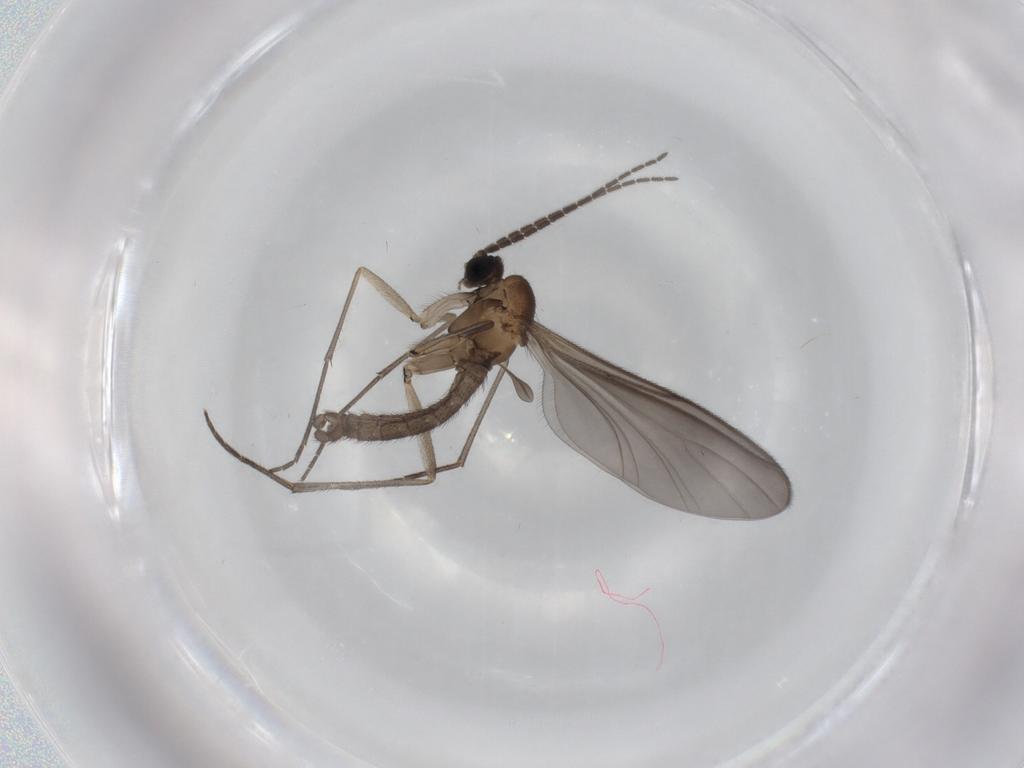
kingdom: Animalia
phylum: Arthropoda
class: Insecta
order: Diptera
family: Sciaridae
